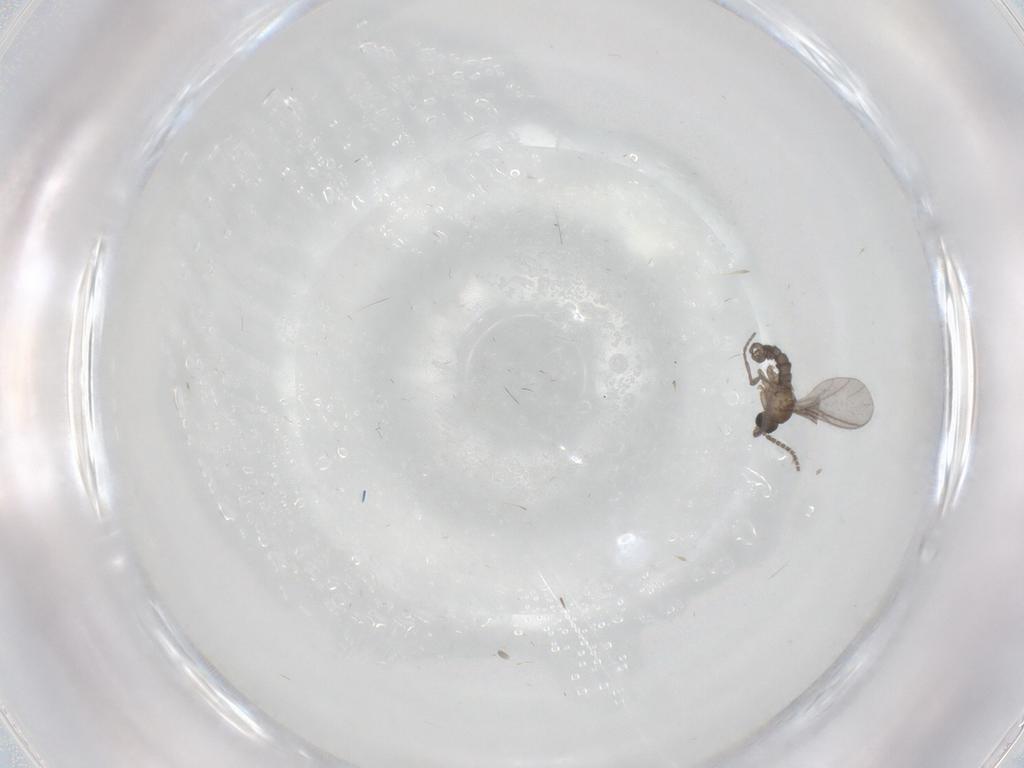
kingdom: Animalia
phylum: Arthropoda
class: Insecta
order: Diptera
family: Sciaridae
